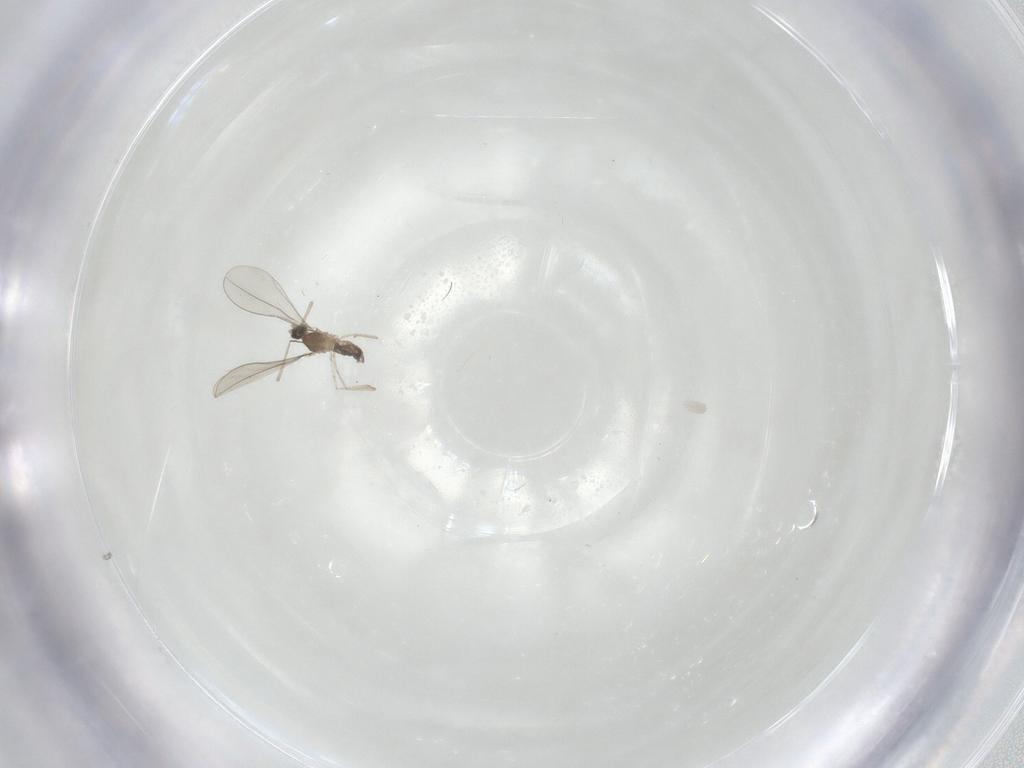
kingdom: Animalia
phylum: Arthropoda
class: Insecta
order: Diptera
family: Cecidomyiidae
